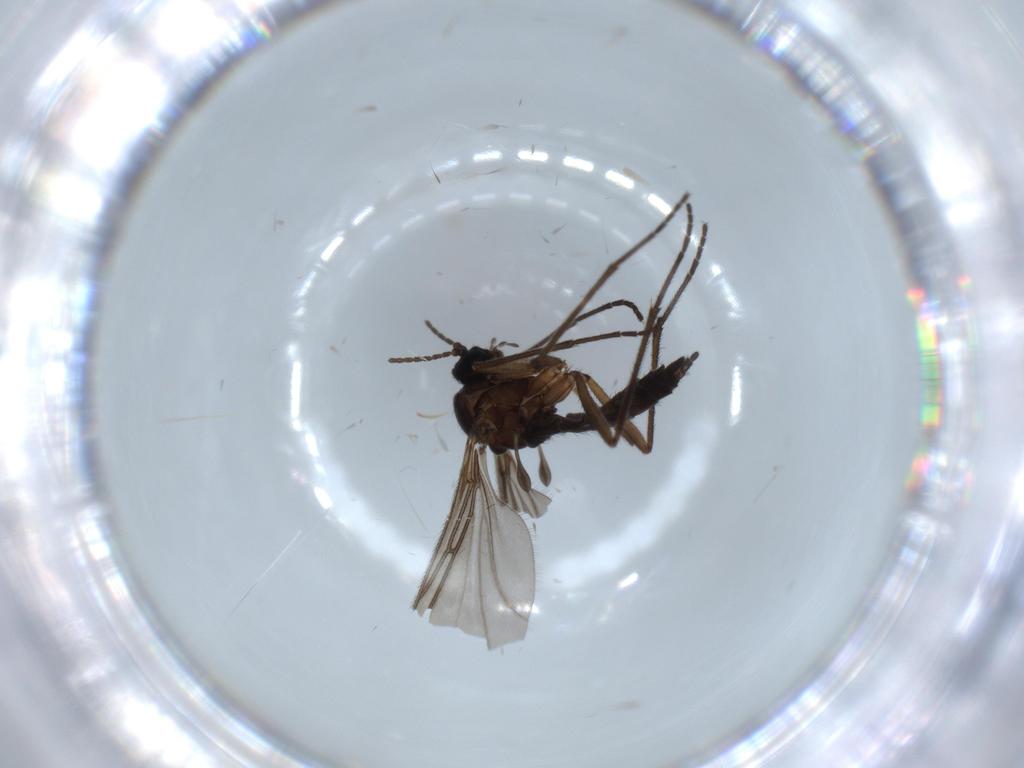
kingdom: Animalia
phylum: Arthropoda
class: Insecta
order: Diptera
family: Sciaridae
